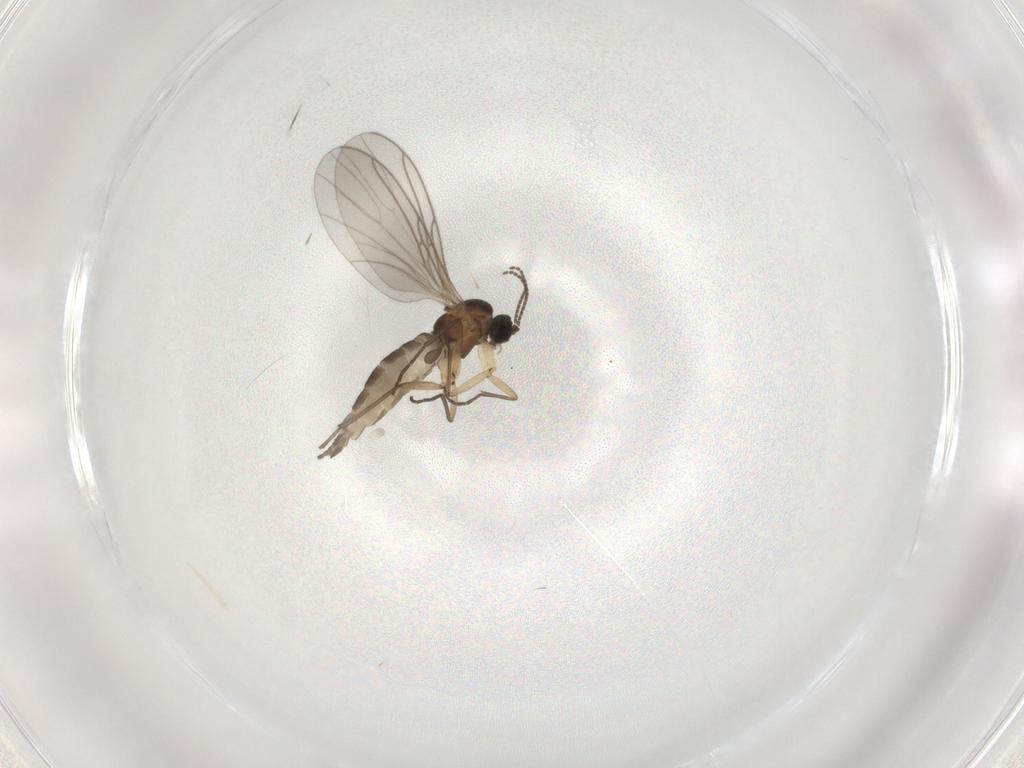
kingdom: Animalia
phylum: Arthropoda
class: Insecta
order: Diptera
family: Sciaridae
